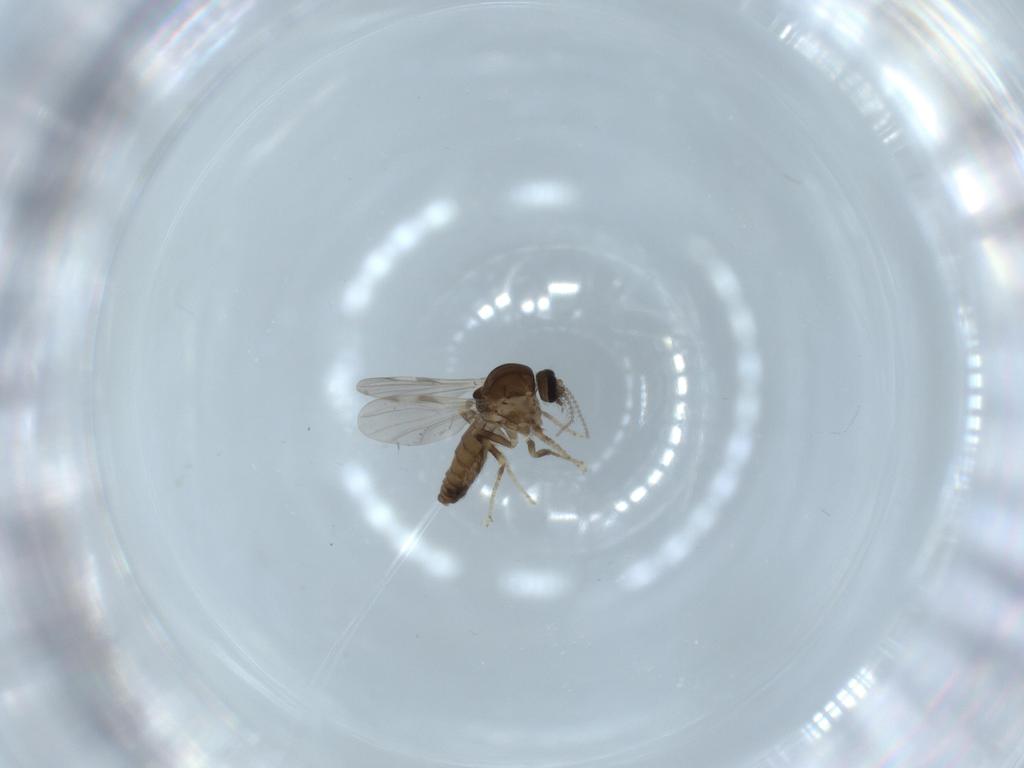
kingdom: Animalia
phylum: Arthropoda
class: Insecta
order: Diptera
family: Ceratopogonidae
